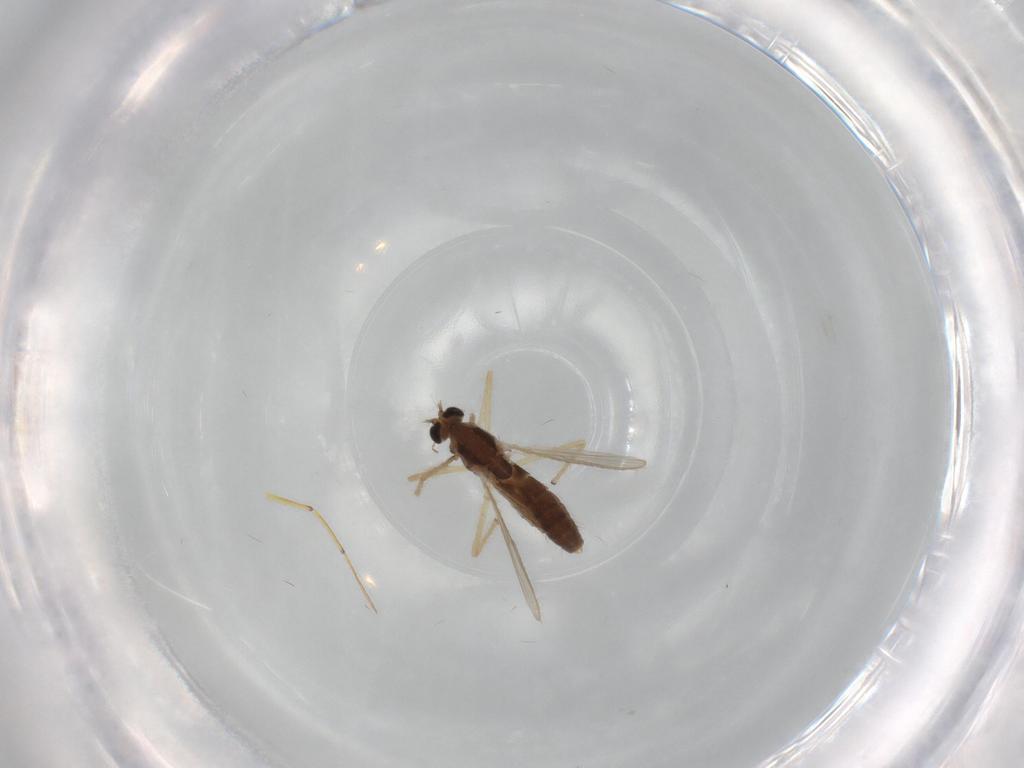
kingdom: Animalia
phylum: Arthropoda
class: Insecta
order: Diptera
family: Chironomidae
